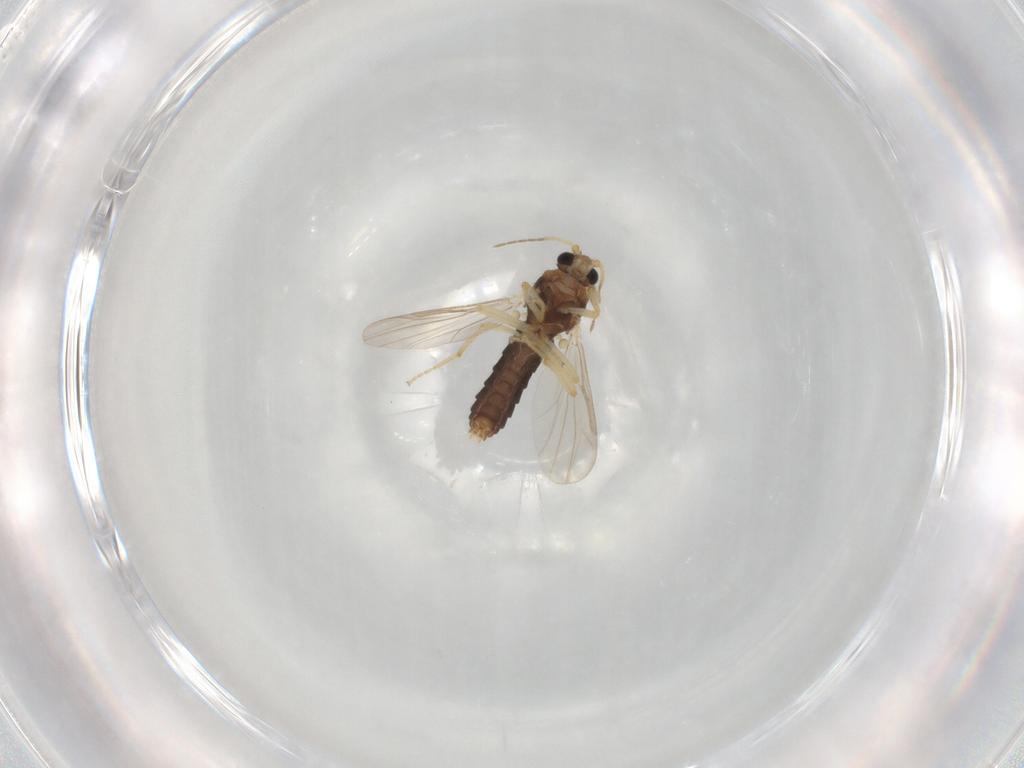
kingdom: Animalia
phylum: Arthropoda
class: Insecta
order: Diptera
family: Ceratopogonidae
